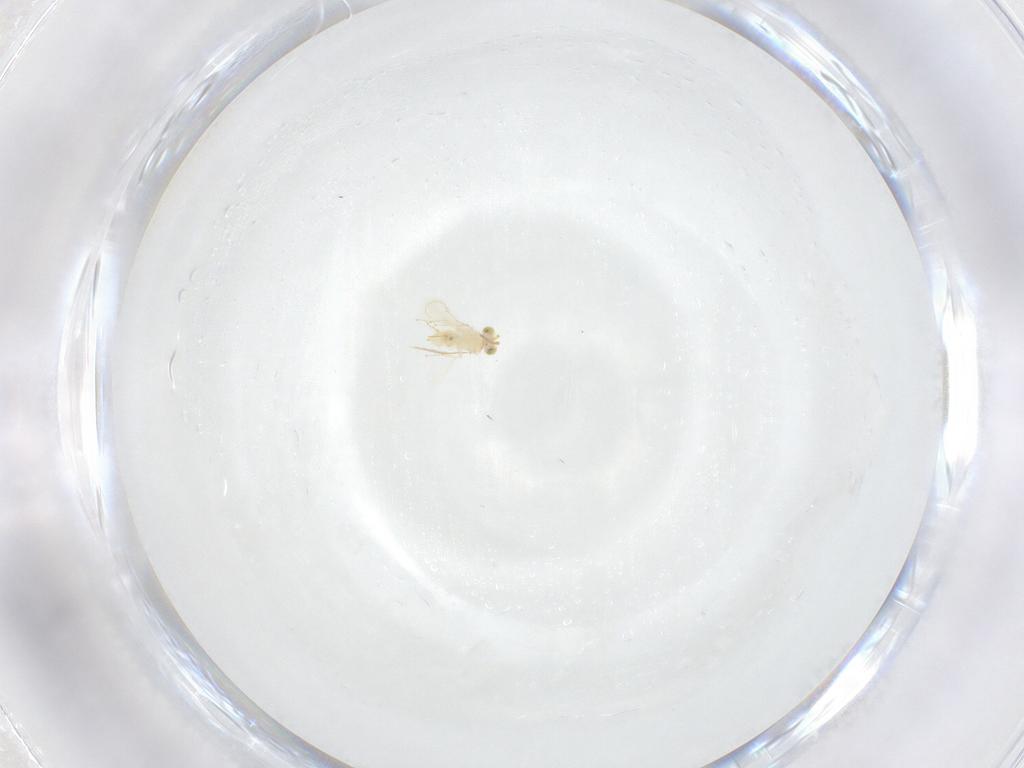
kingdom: Animalia
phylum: Arthropoda
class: Insecta
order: Hymenoptera
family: Aphelinidae
